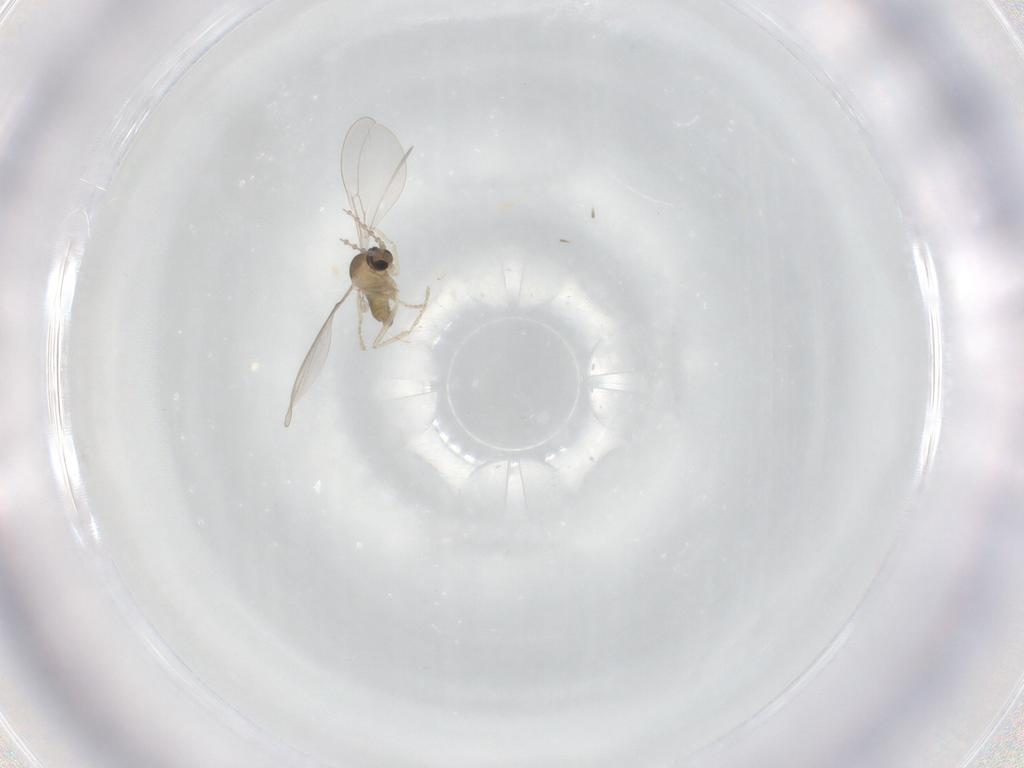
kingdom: Animalia
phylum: Arthropoda
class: Insecta
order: Diptera
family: Cecidomyiidae
